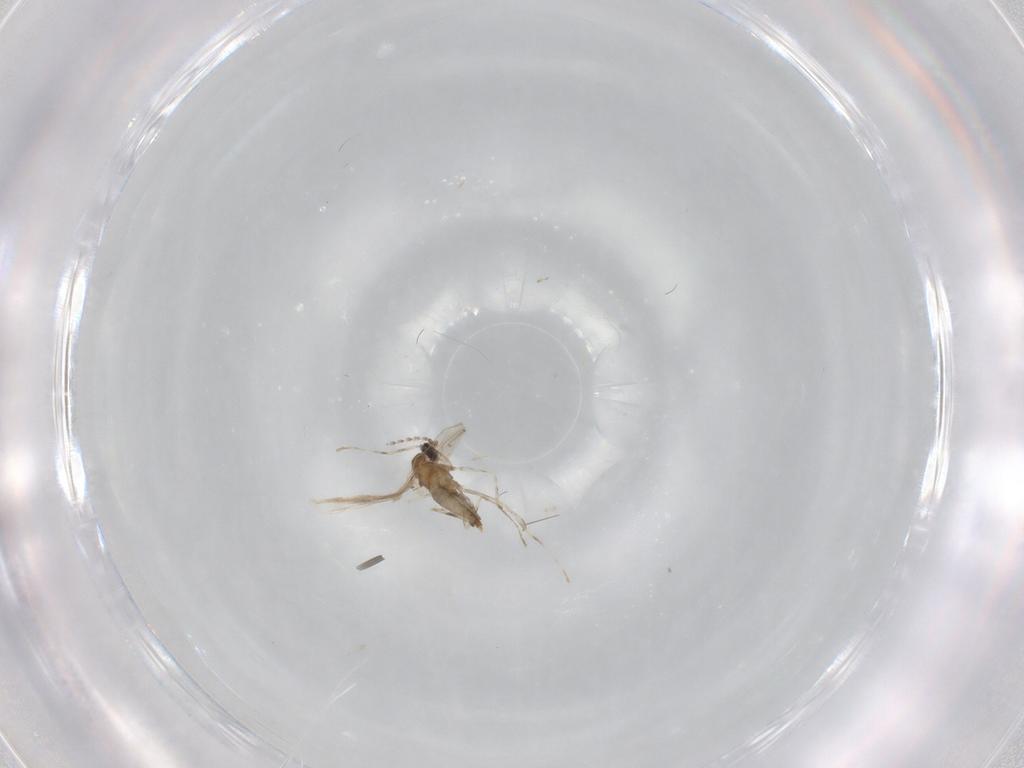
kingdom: Animalia
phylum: Arthropoda
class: Insecta
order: Diptera
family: Cecidomyiidae
